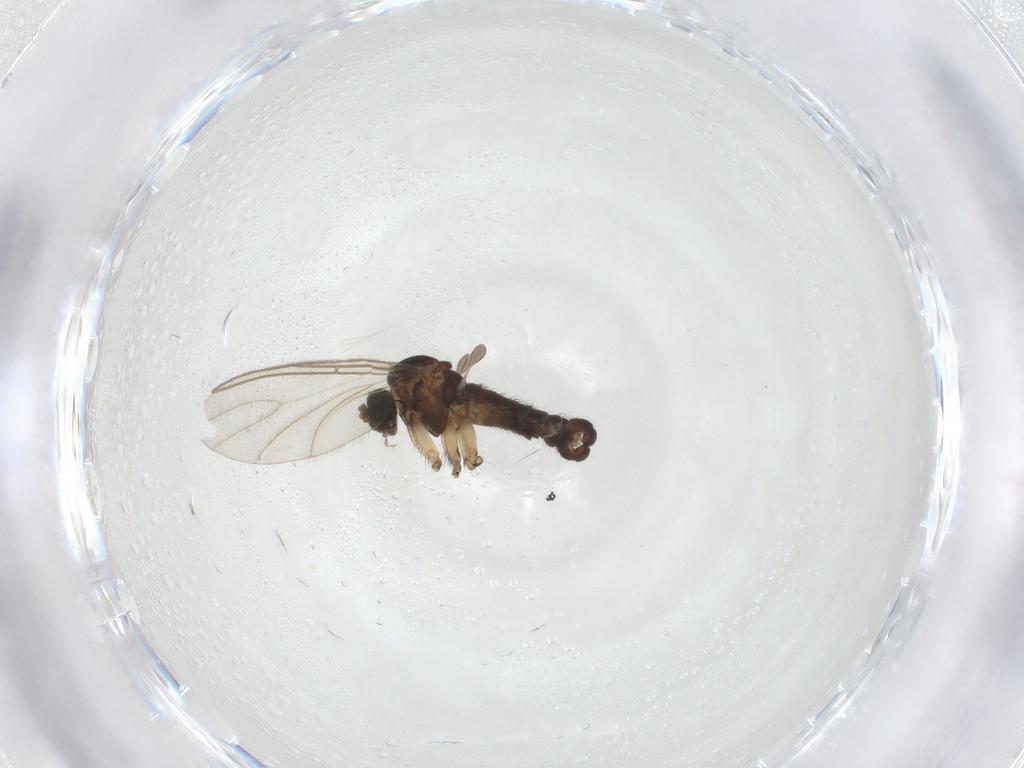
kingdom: Animalia
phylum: Arthropoda
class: Insecta
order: Diptera
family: Sciaridae
